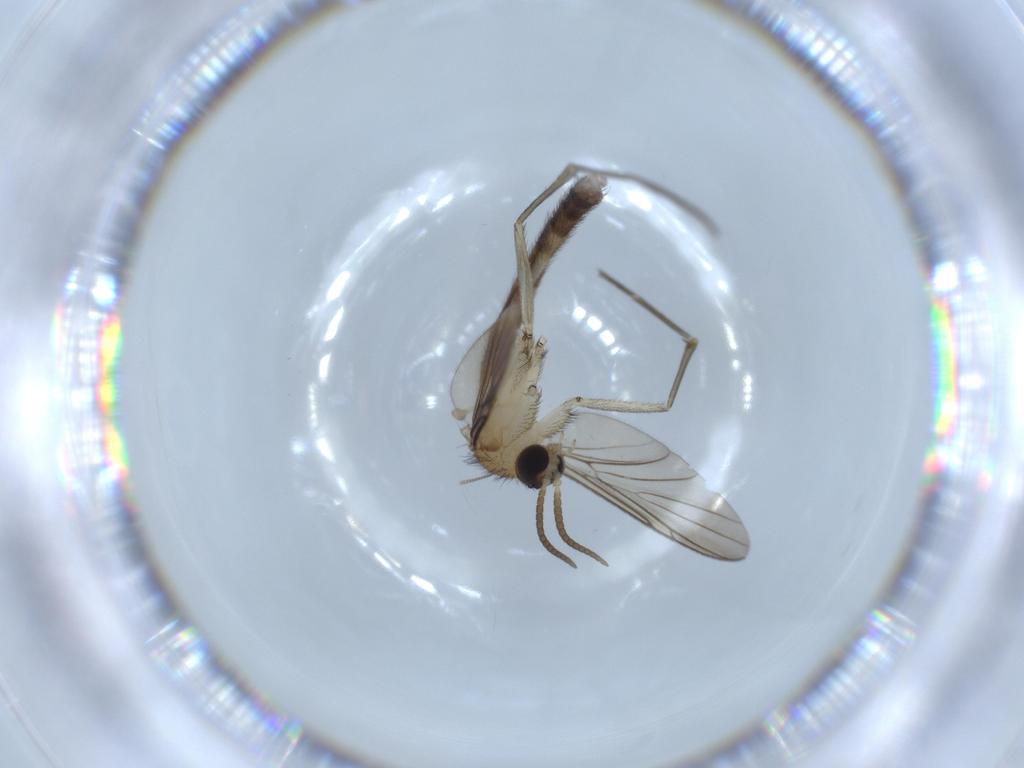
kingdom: Animalia
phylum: Arthropoda
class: Insecta
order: Diptera
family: Keroplatidae
